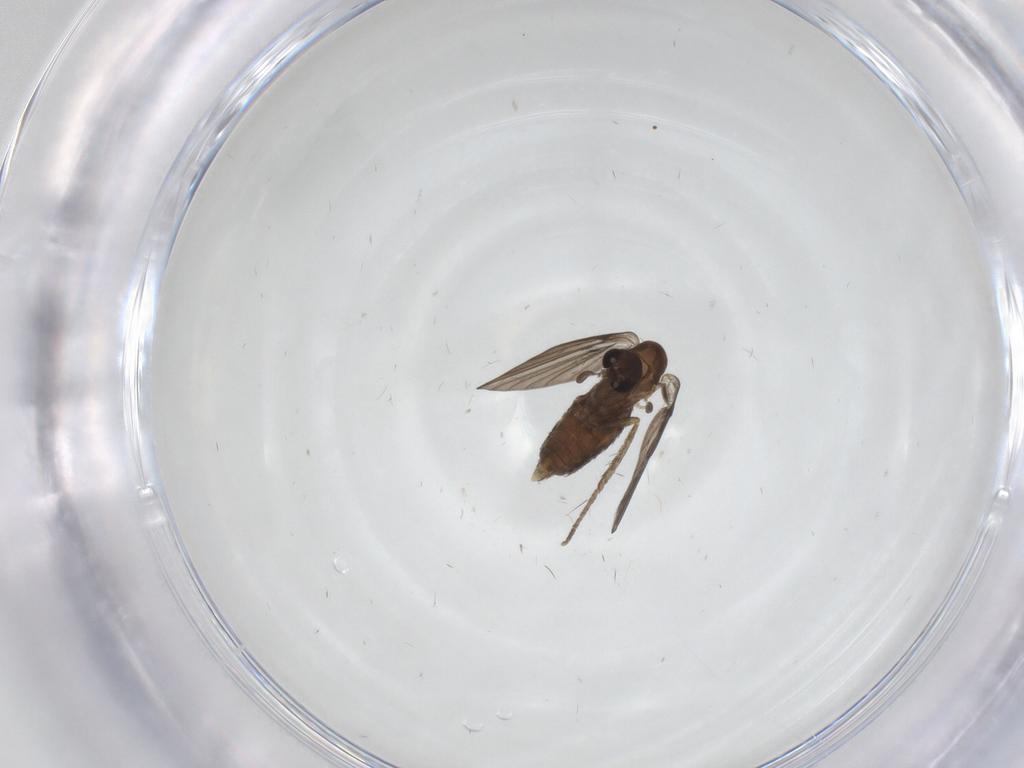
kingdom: Animalia
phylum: Arthropoda
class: Insecta
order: Diptera
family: Psychodidae
